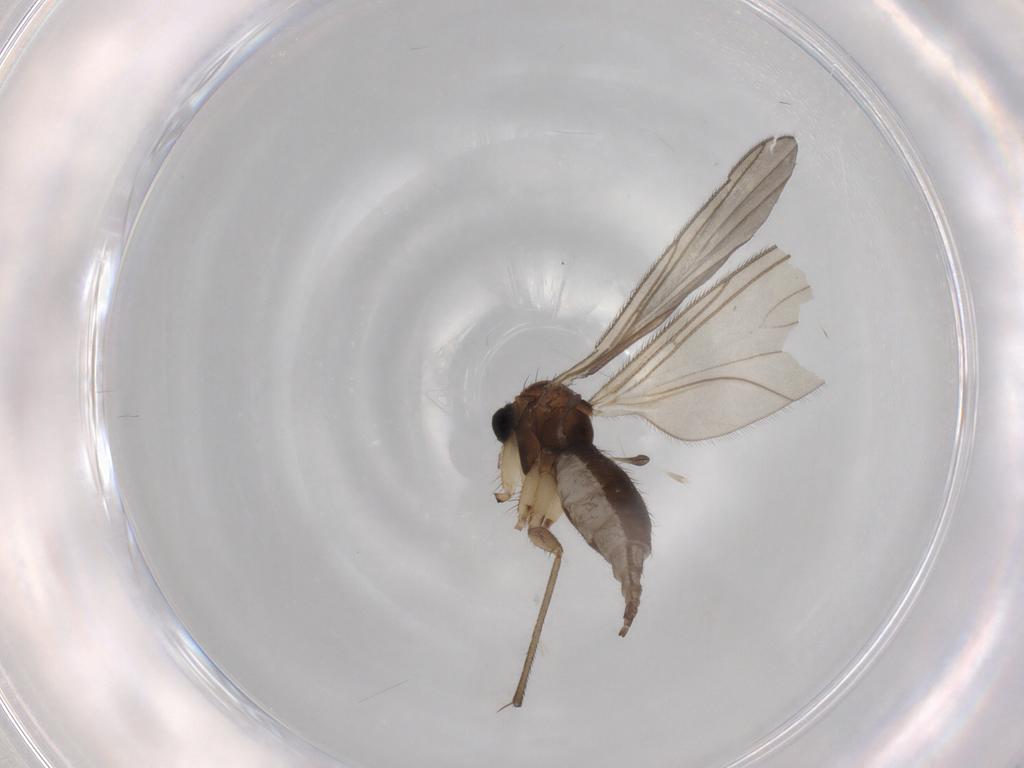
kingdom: Animalia
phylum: Arthropoda
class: Insecta
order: Diptera
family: Sciaridae
